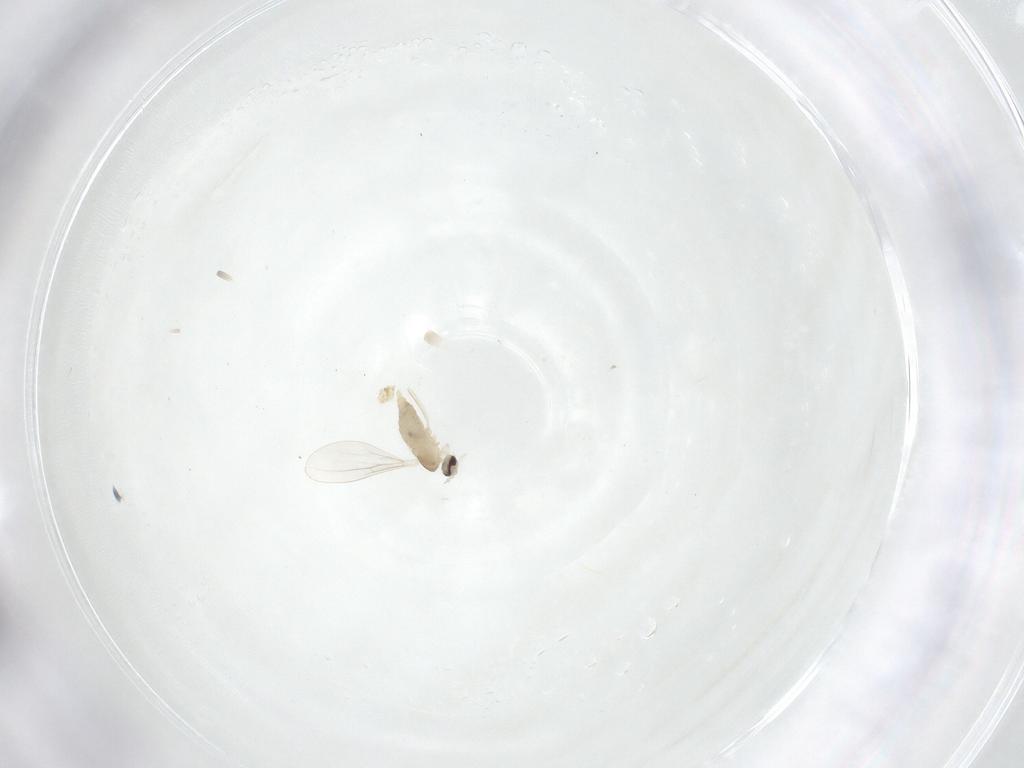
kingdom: Animalia
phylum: Arthropoda
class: Insecta
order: Diptera
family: Cecidomyiidae
